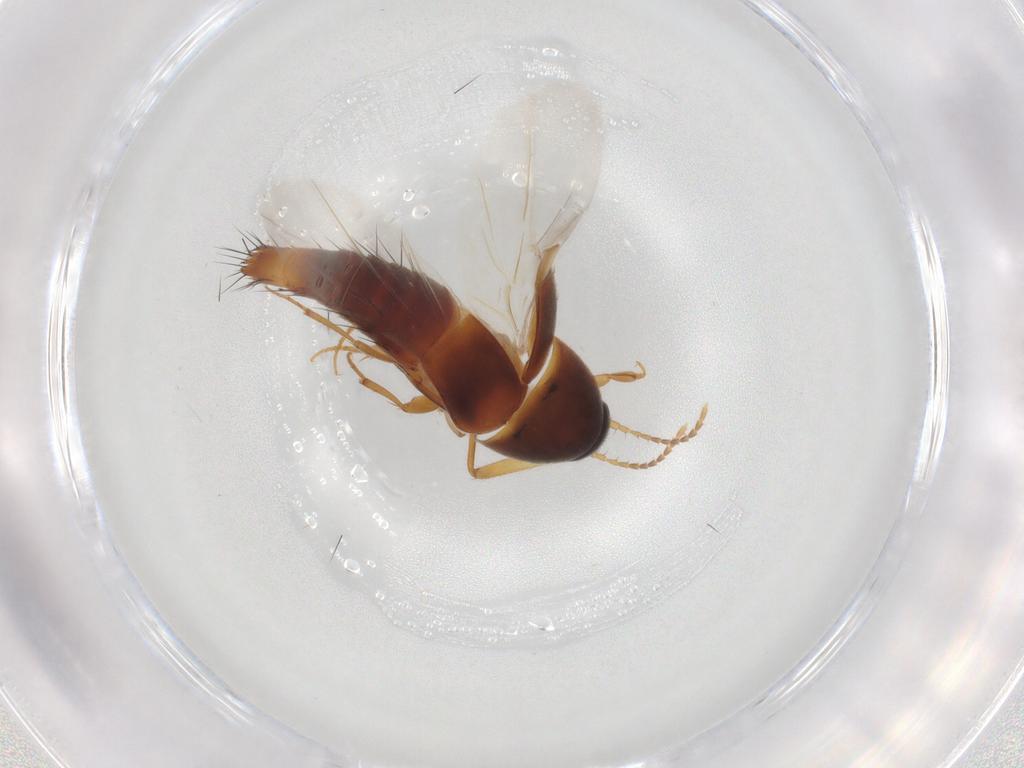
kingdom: Animalia
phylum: Arthropoda
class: Insecta
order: Coleoptera
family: Staphylinidae
